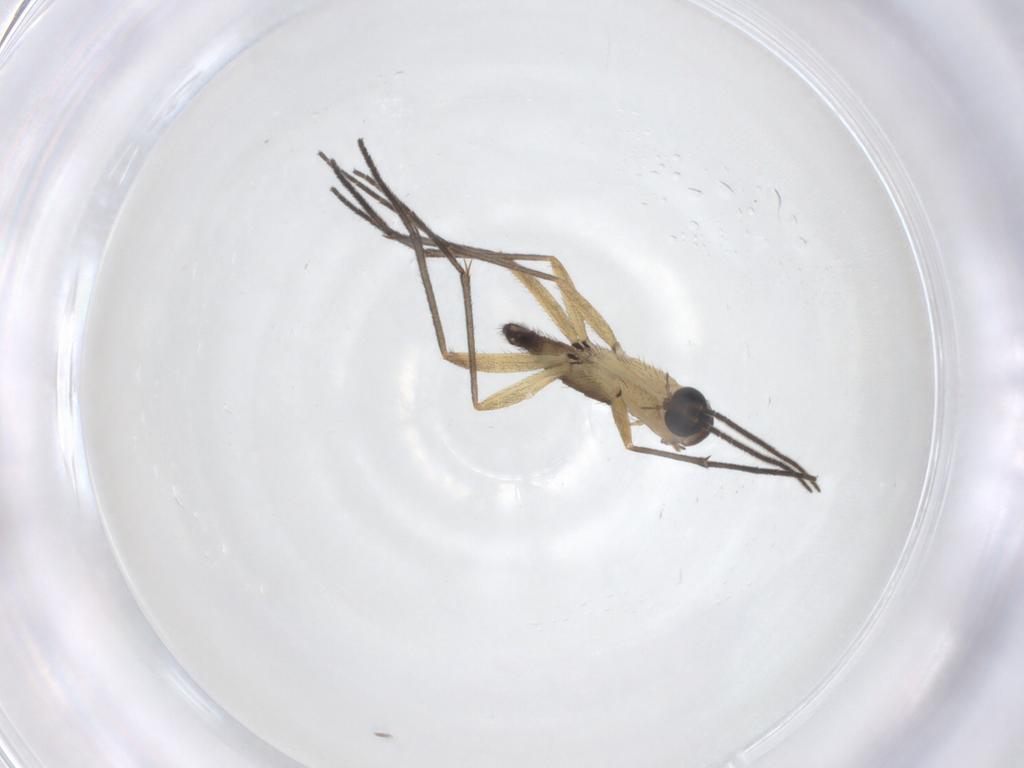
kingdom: Animalia
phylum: Arthropoda
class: Insecta
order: Diptera
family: Sciaridae
